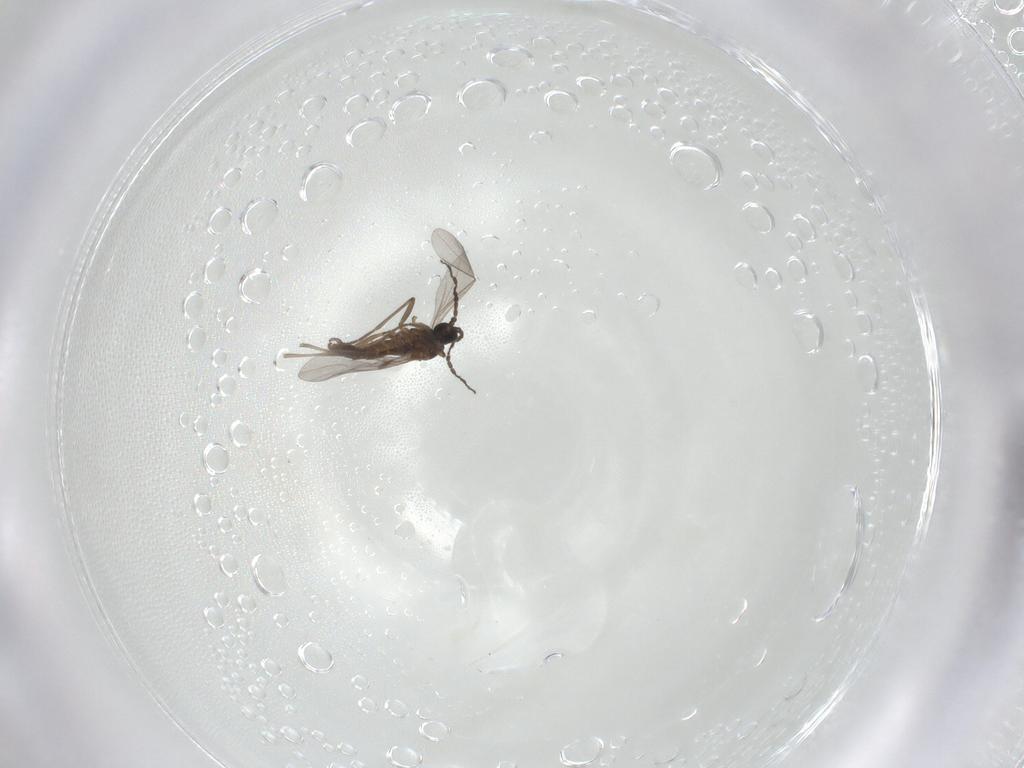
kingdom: Animalia
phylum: Arthropoda
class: Insecta
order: Diptera
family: Sciaridae
